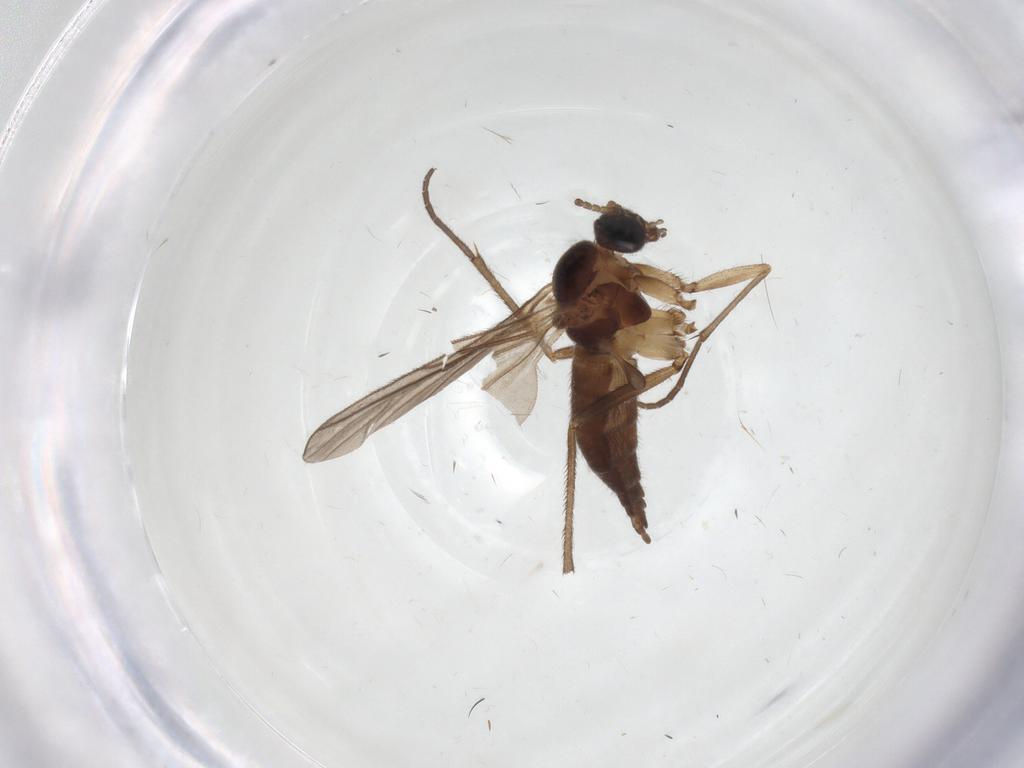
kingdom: Animalia
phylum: Arthropoda
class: Insecta
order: Diptera
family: Sciaridae
